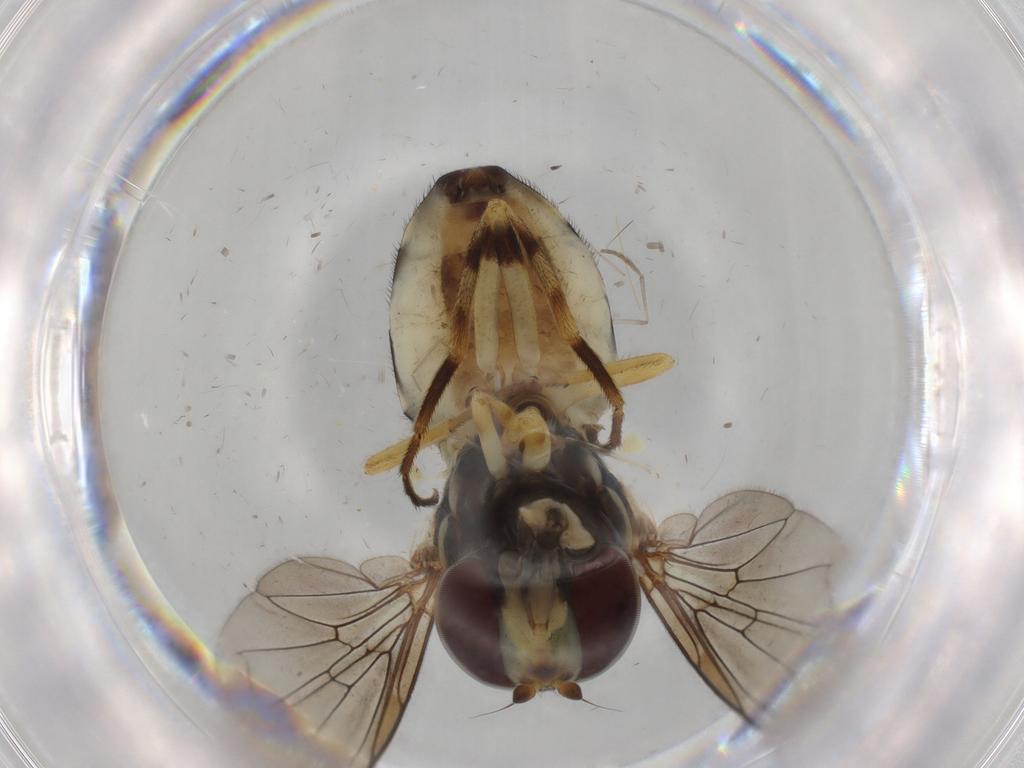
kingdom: Animalia
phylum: Arthropoda
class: Insecta
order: Diptera
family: Syrphidae
